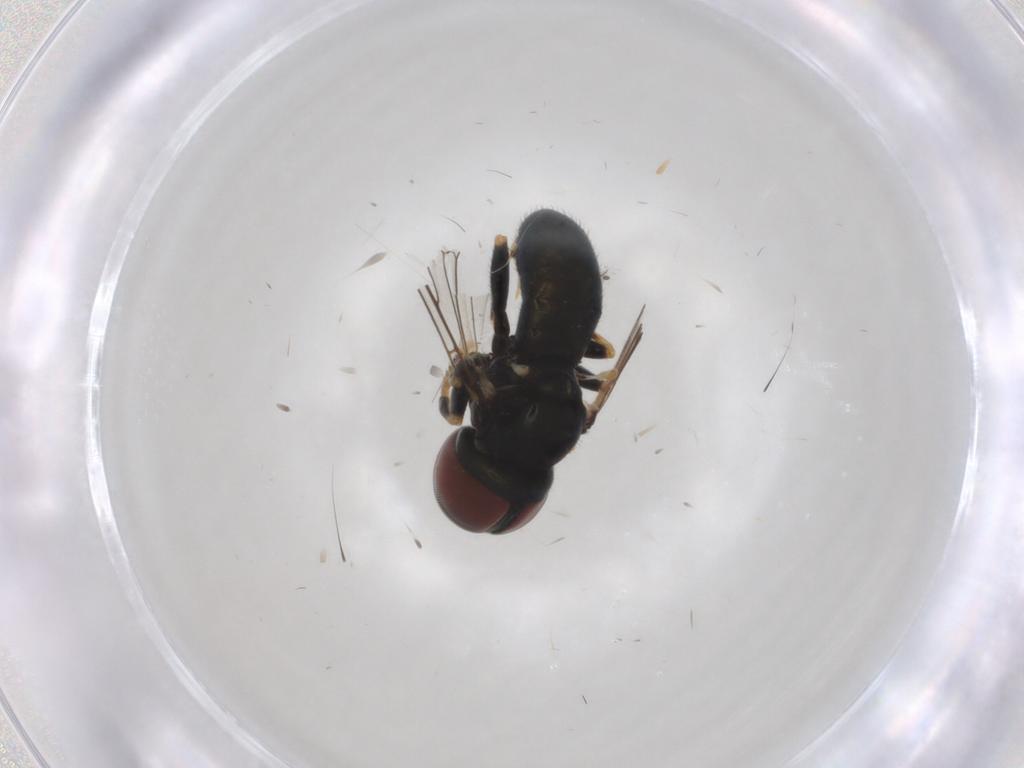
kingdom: Animalia
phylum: Arthropoda
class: Insecta
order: Diptera
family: Pipunculidae
